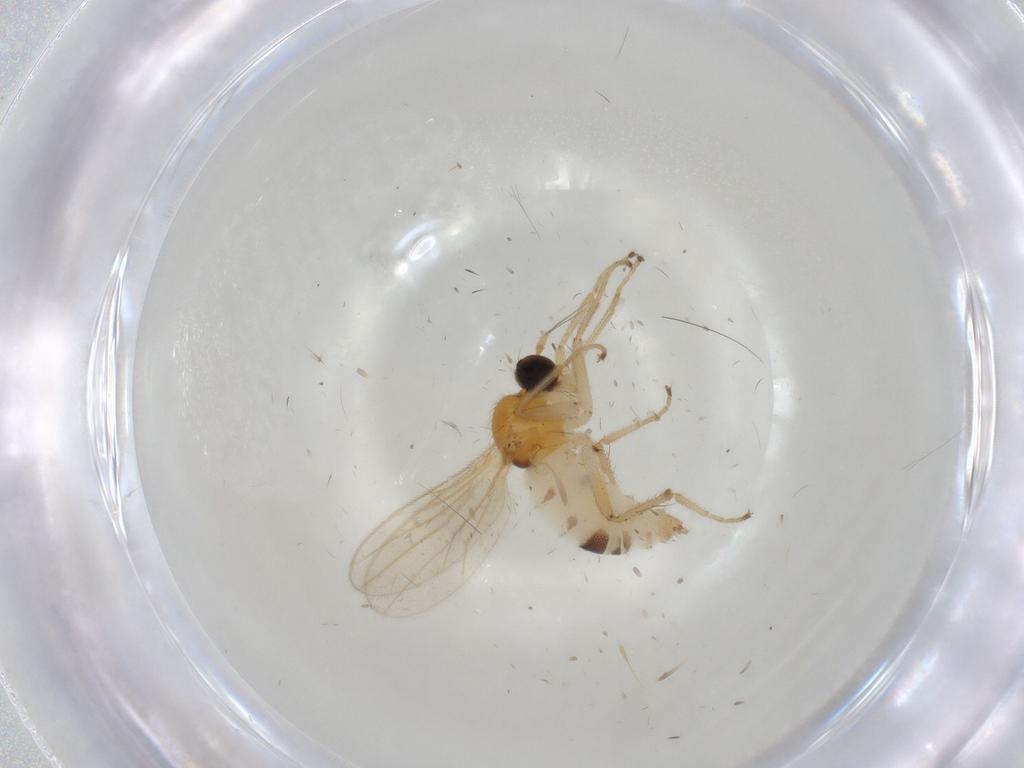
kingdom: Animalia
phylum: Arthropoda
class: Insecta
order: Diptera
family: Hybotidae
